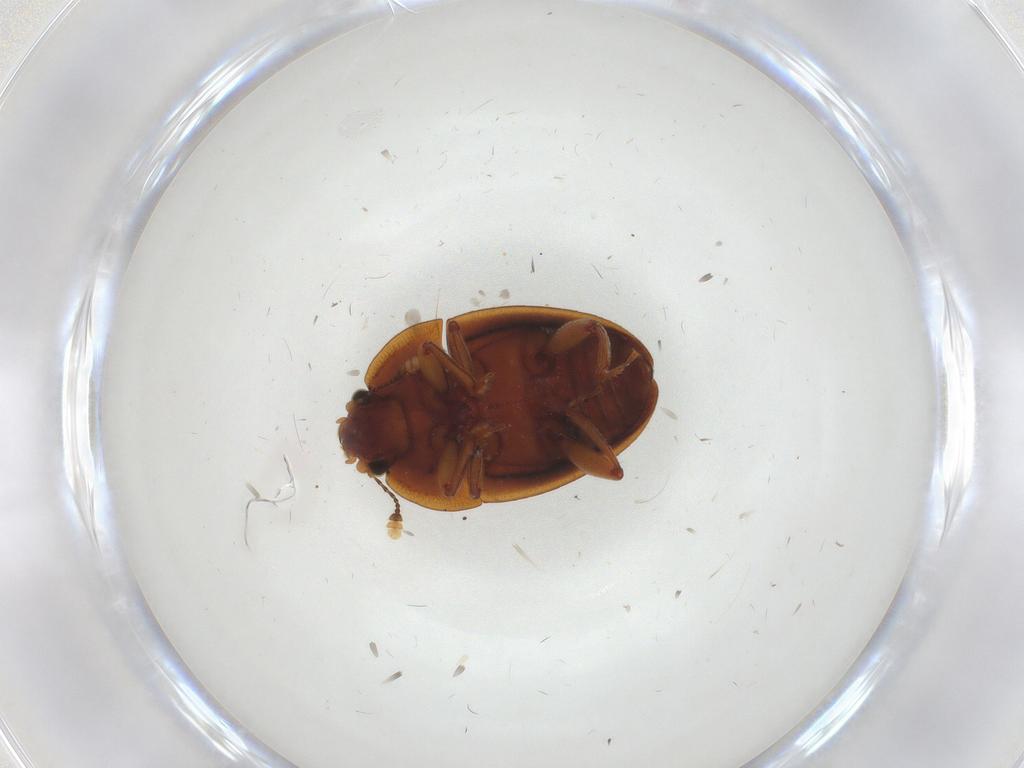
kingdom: Animalia
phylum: Arthropoda
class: Insecta
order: Coleoptera
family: Nitidulidae
